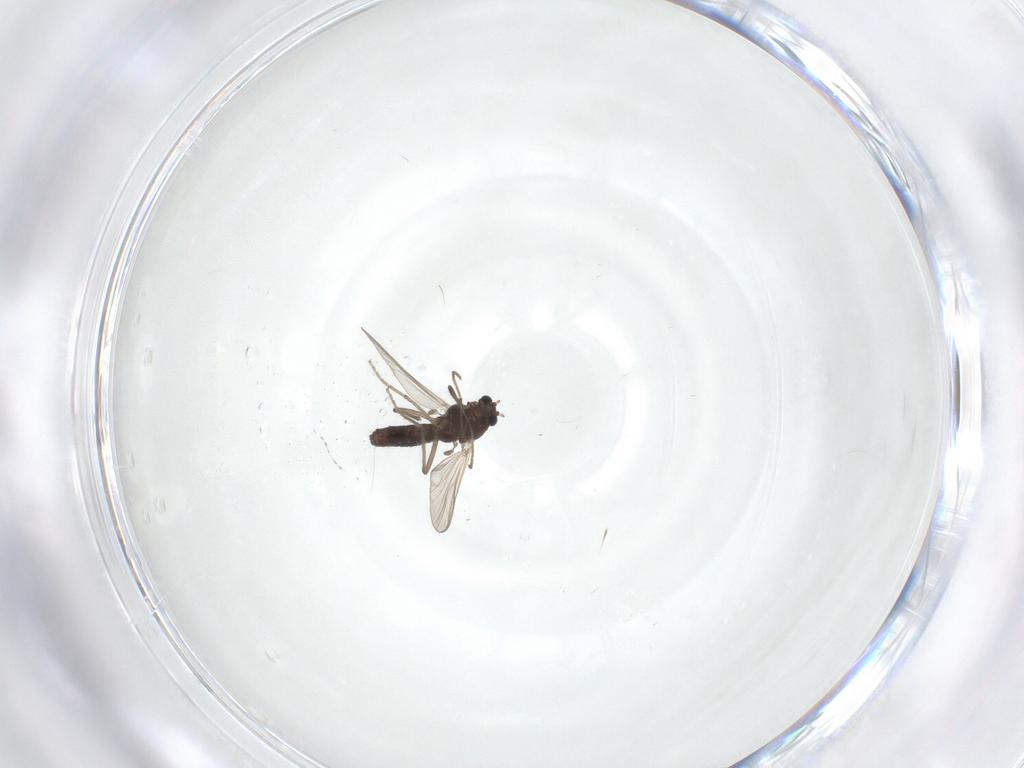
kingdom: Animalia
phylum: Arthropoda
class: Insecta
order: Diptera
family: Chironomidae
